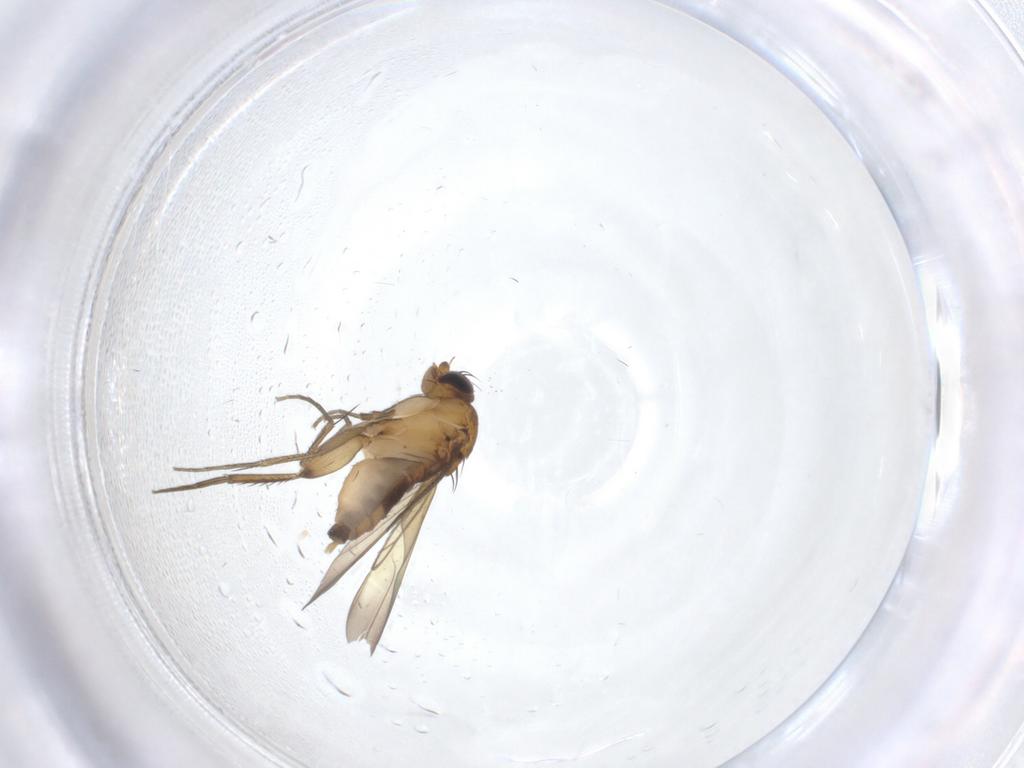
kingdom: Animalia
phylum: Arthropoda
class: Insecta
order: Diptera
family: Phoridae
